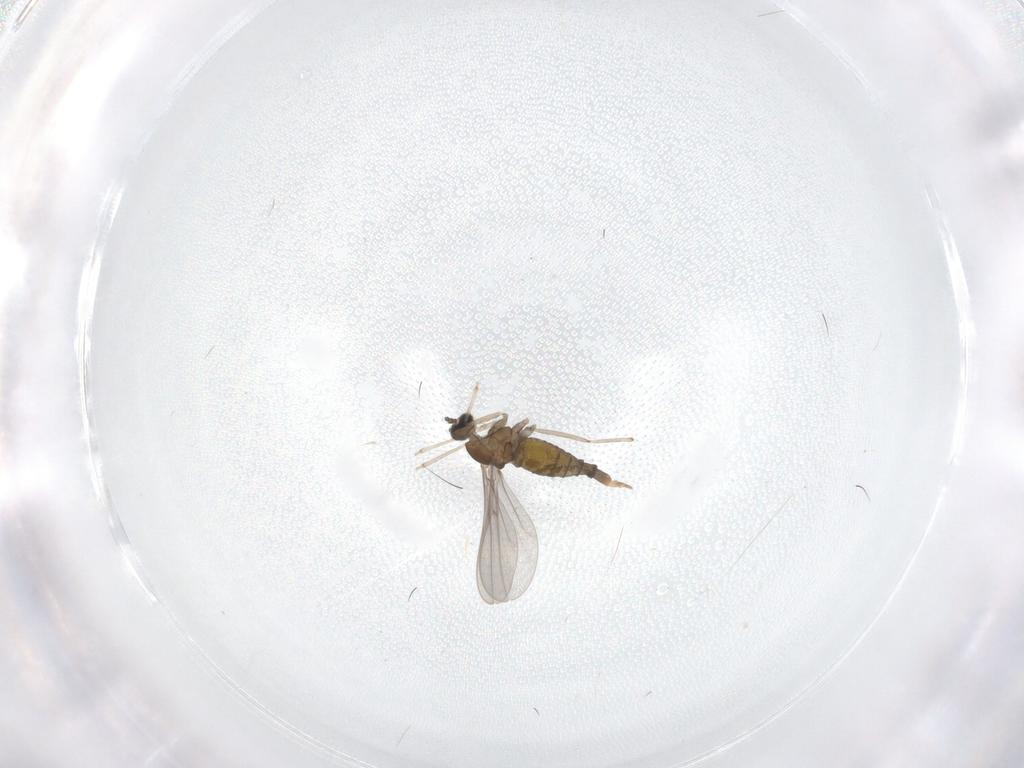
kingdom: Animalia
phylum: Arthropoda
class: Insecta
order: Diptera
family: Cecidomyiidae
